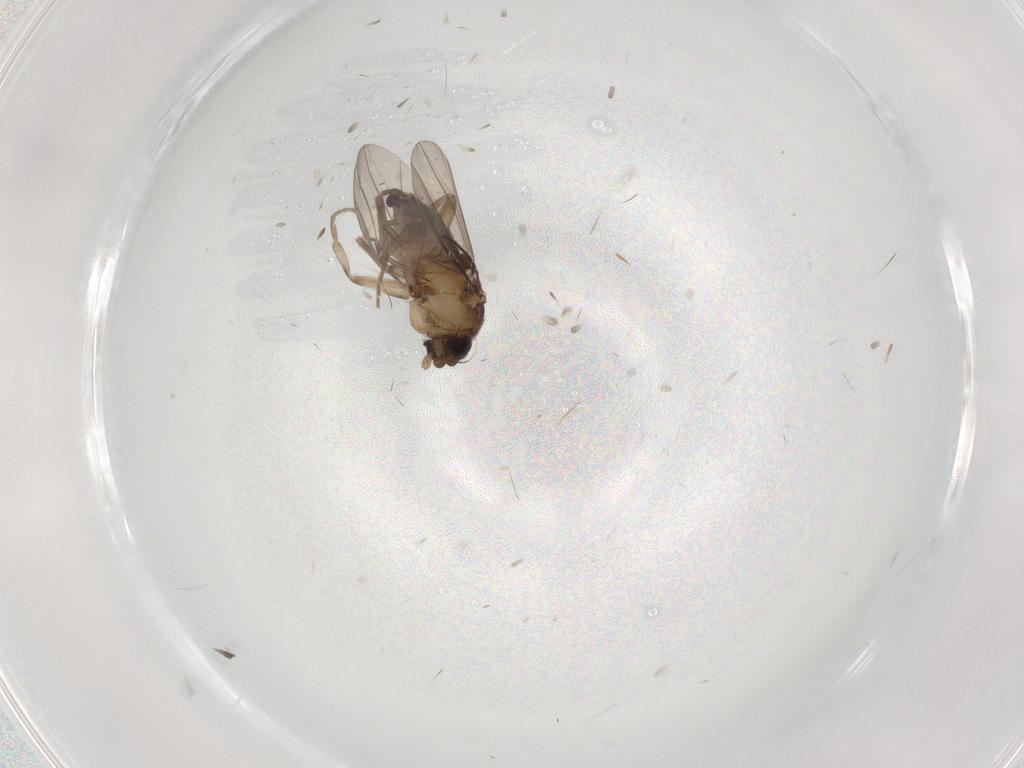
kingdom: Animalia
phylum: Arthropoda
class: Insecta
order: Diptera
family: Phoridae
